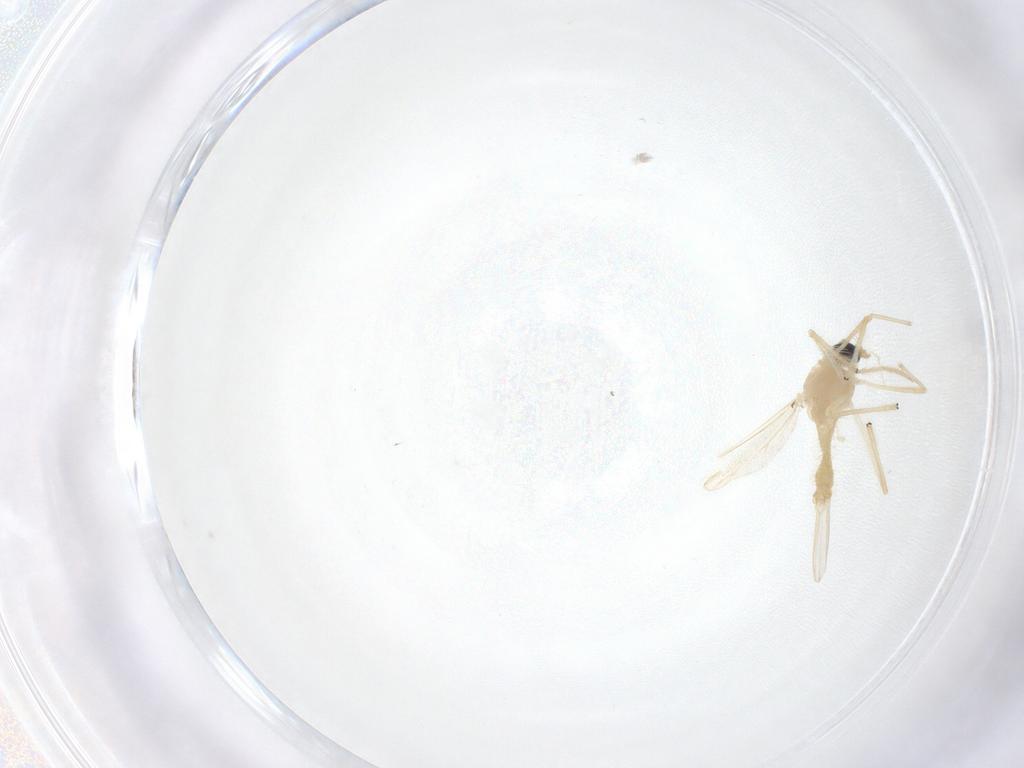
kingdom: Animalia
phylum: Arthropoda
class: Insecta
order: Diptera
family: Chironomidae
